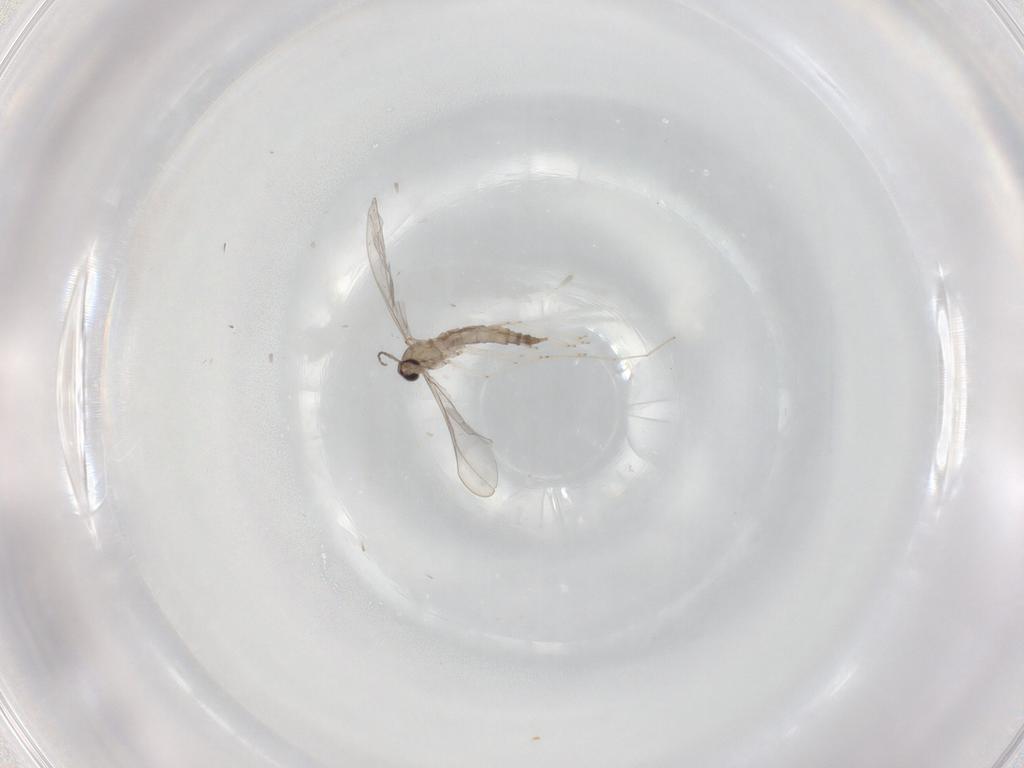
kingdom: Animalia
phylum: Arthropoda
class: Insecta
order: Diptera
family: Cecidomyiidae
